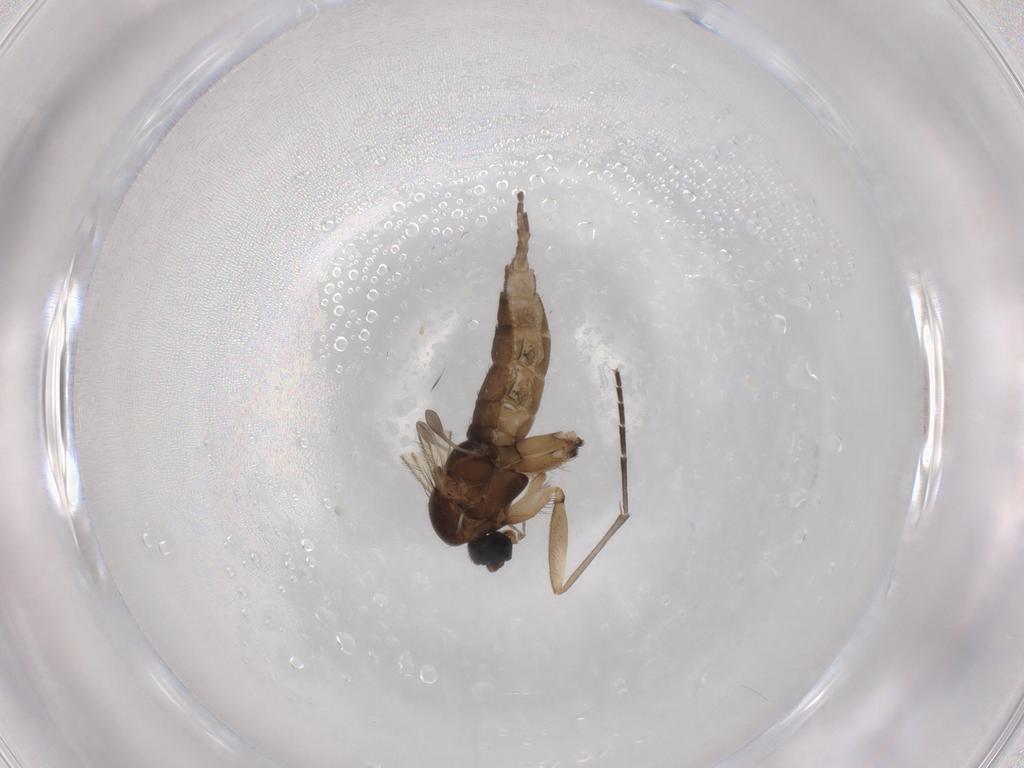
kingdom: Animalia
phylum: Arthropoda
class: Insecta
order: Diptera
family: Sciaridae
